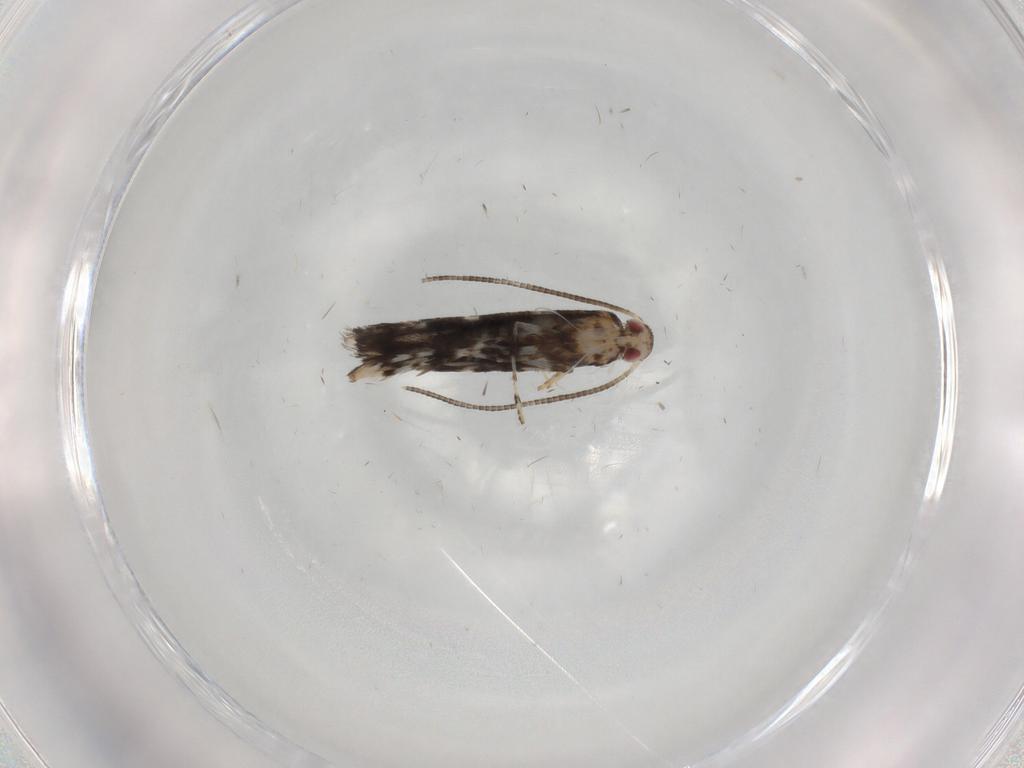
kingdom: Animalia
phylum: Arthropoda
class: Insecta
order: Lepidoptera
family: Gracillariidae
